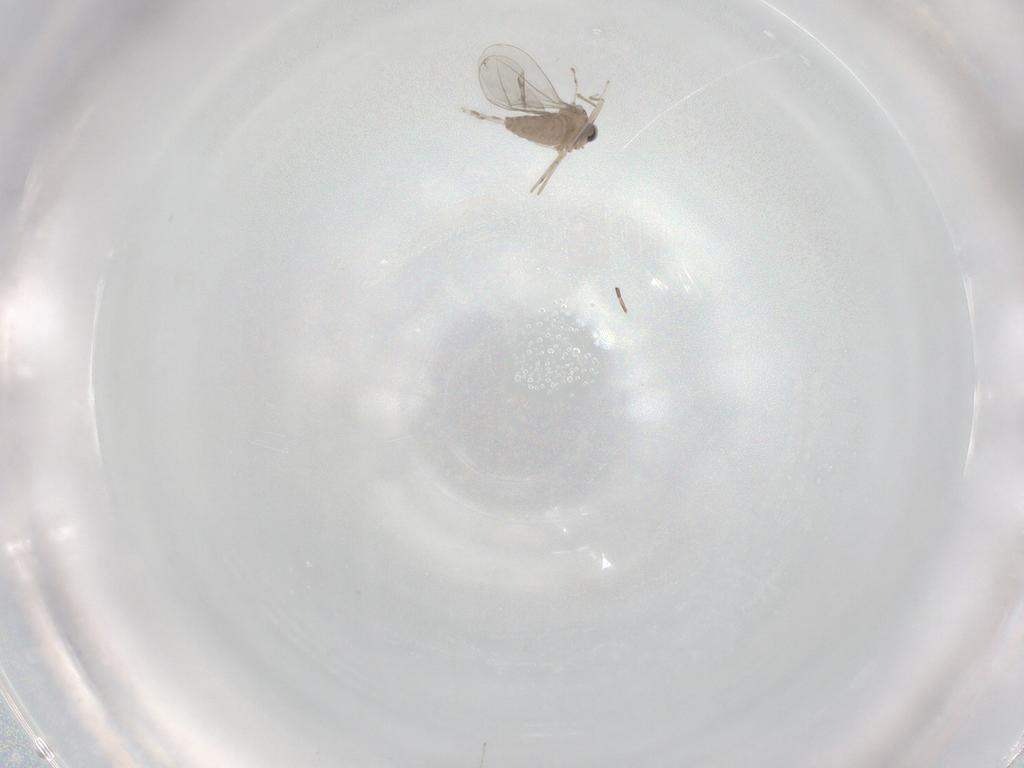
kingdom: Animalia
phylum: Arthropoda
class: Insecta
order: Diptera
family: Cecidomyiidae
